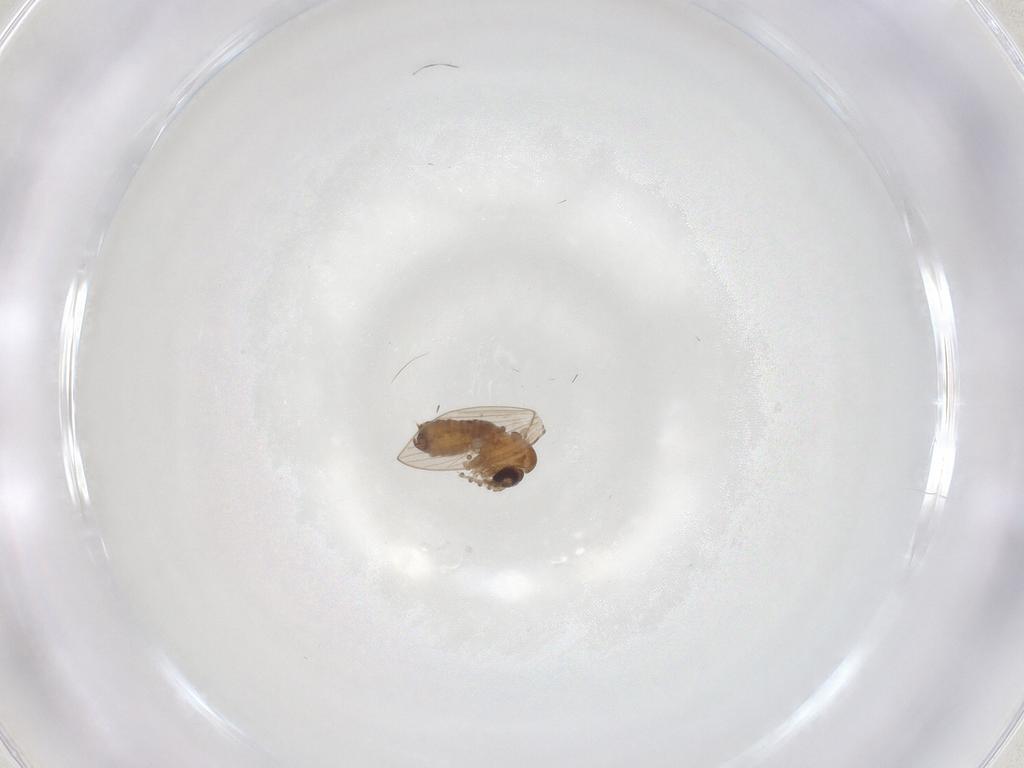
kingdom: Animalia
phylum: Arthropoda
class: Insecta
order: Diptera
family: Psychodidae
